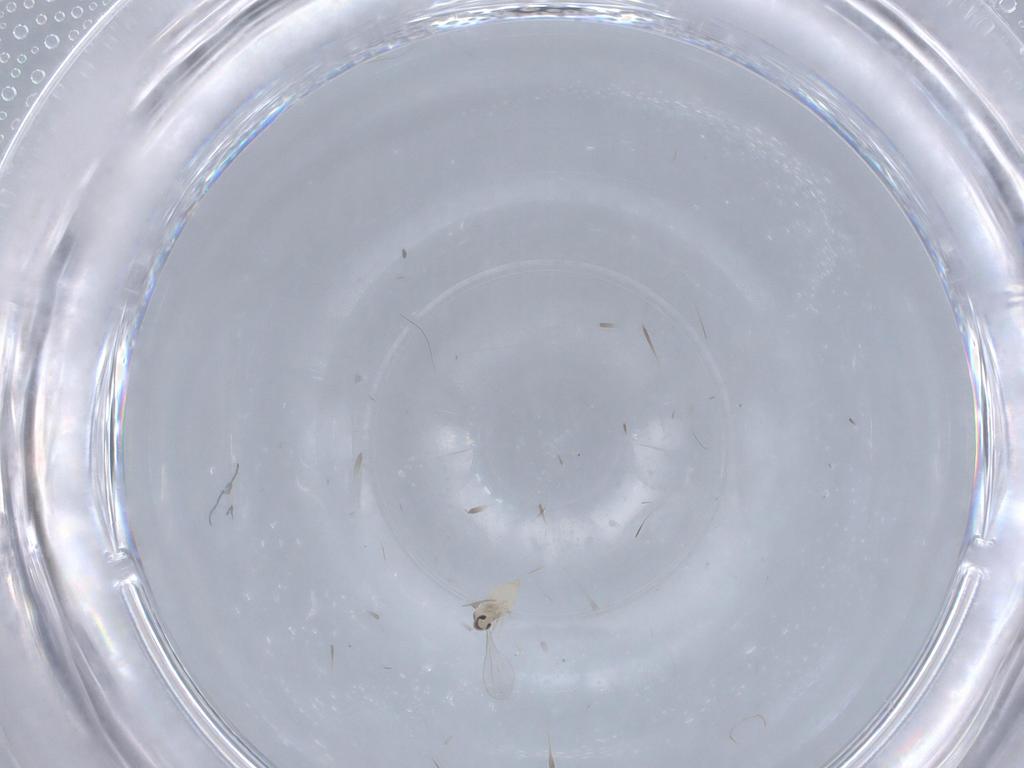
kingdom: Animalia
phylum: Arthropoda
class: Insecta
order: Diptera
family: Cecidomyiidae
